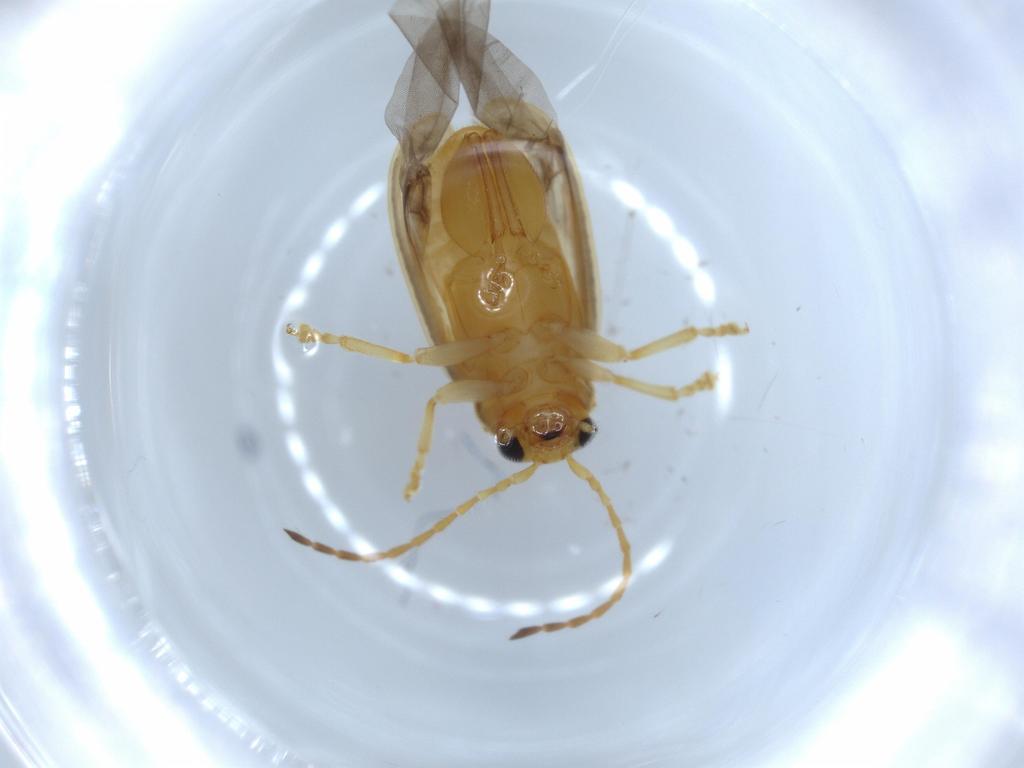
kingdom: Animalia
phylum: Arthropoda
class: Insecta
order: Coleoptera
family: Chrysomelidae
